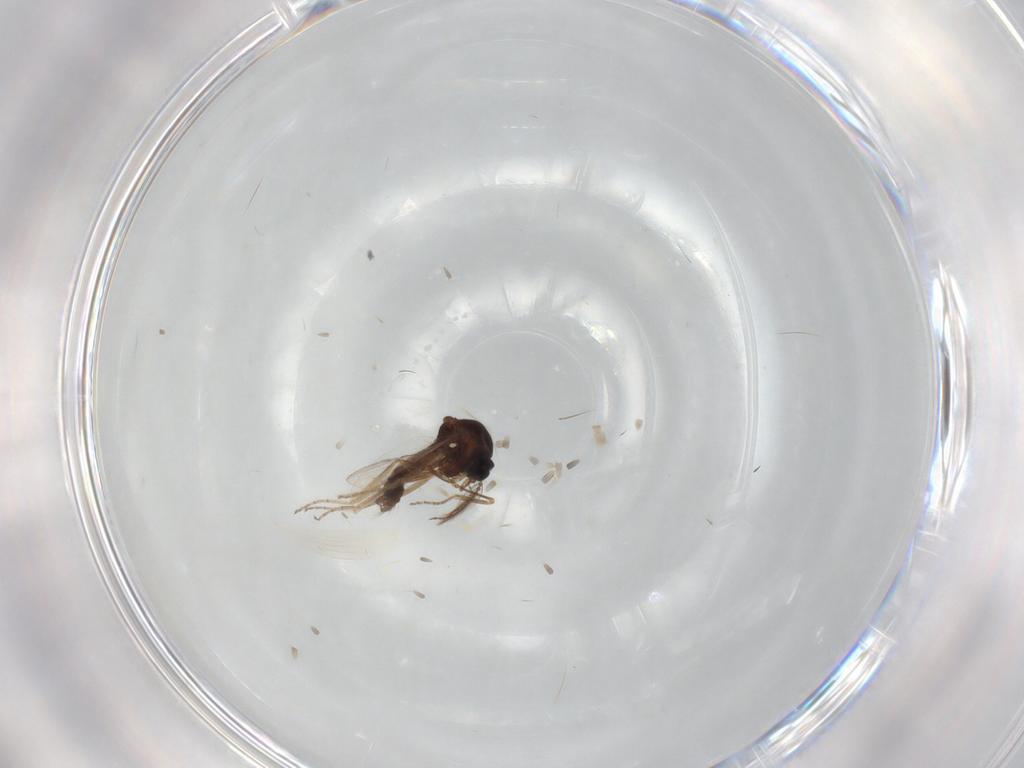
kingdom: Animalia
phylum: Arthropoda
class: Insecta
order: Diptera
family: Ceratopogonidae
